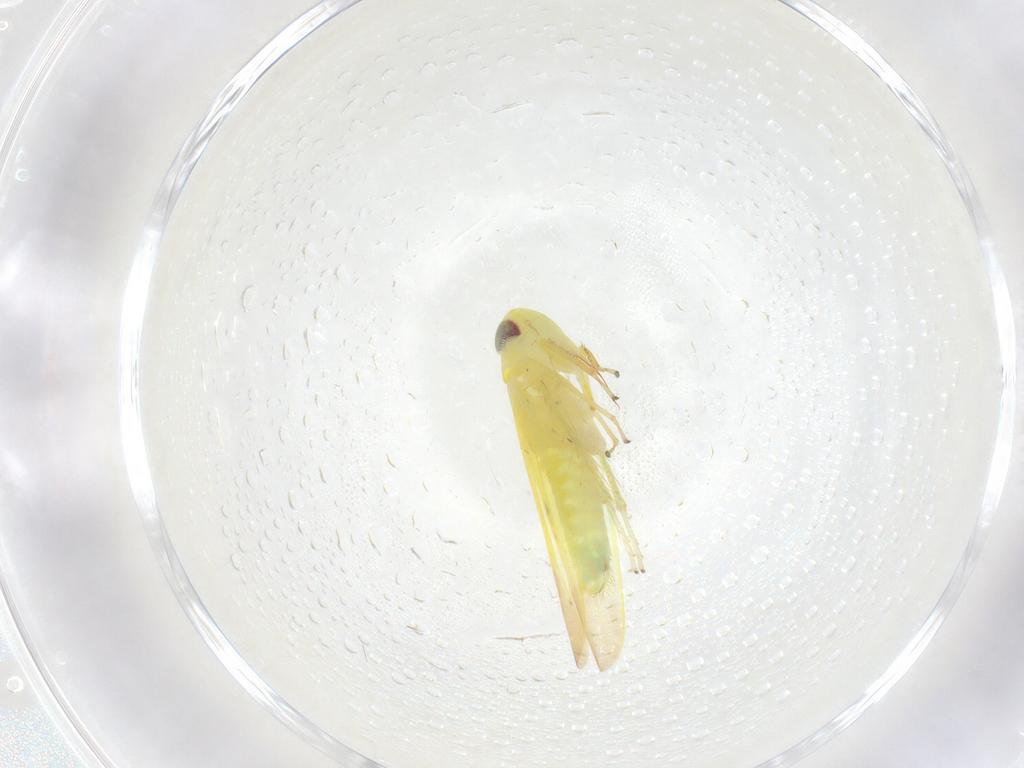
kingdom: Animalia
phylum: Arthropoda
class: Insecta
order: Hemiptera
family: Cicadellidae
